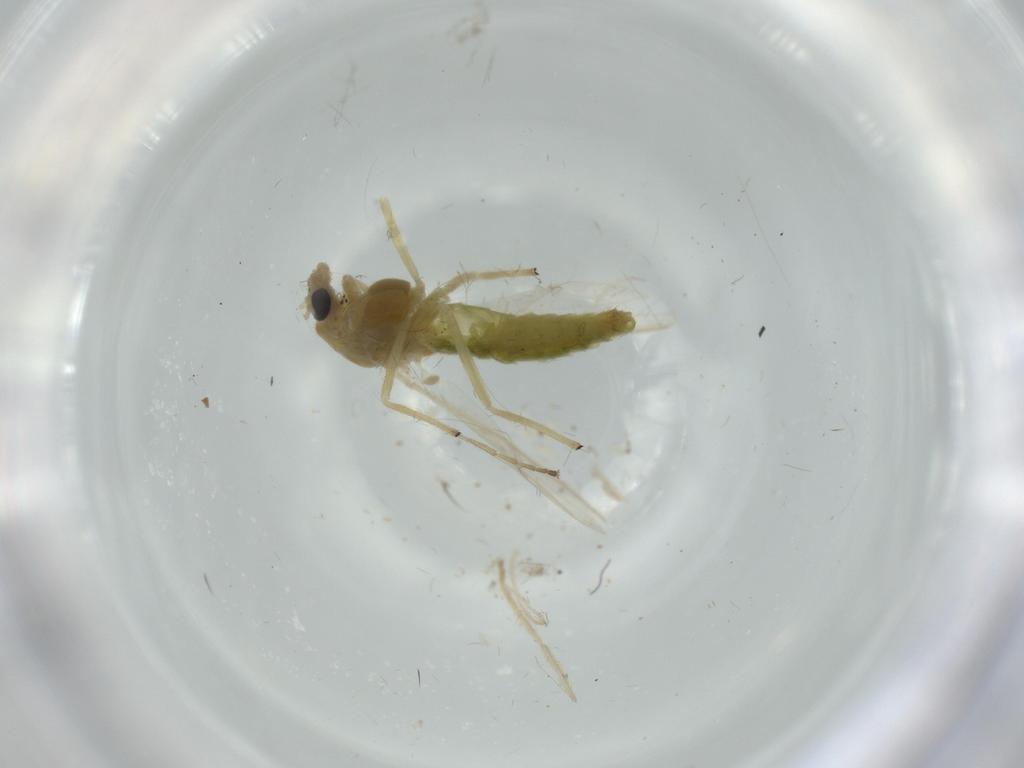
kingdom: Animalia
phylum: Arthropoda
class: Insecta
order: Diptera
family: Chironomidae
